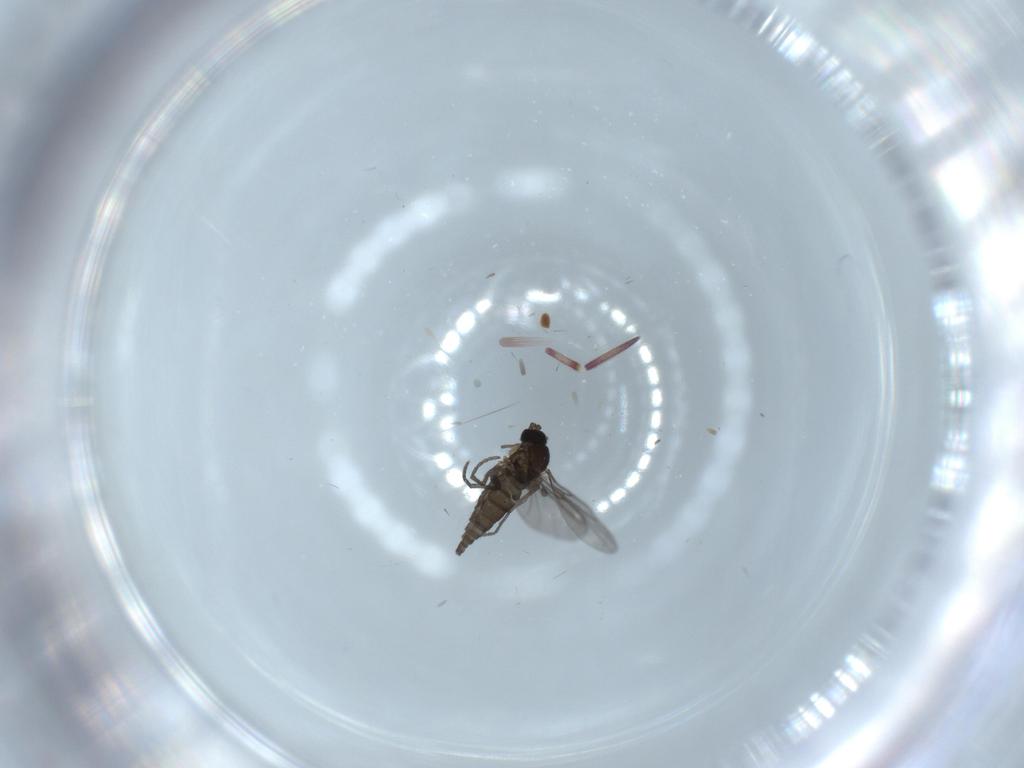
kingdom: Animalia
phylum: Arthropoda
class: Insecta
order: Diptera
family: Sciaridae
